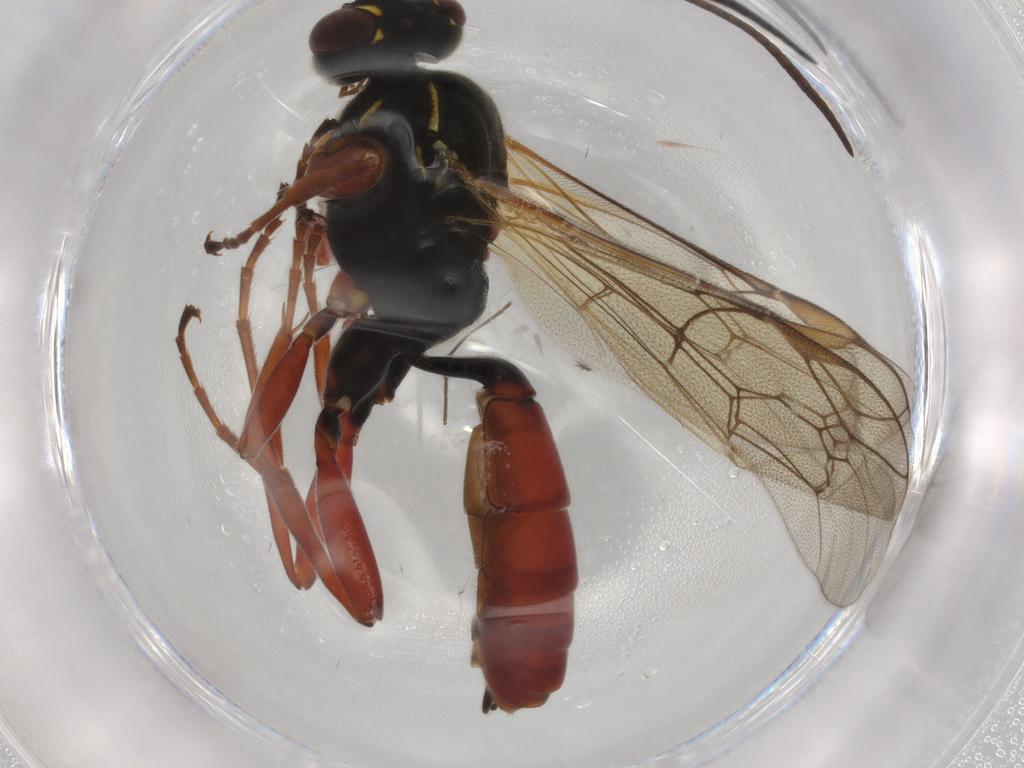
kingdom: Animalia
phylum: Arthropoda
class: Insecta
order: Hymenoptera
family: Ichneumonidae
